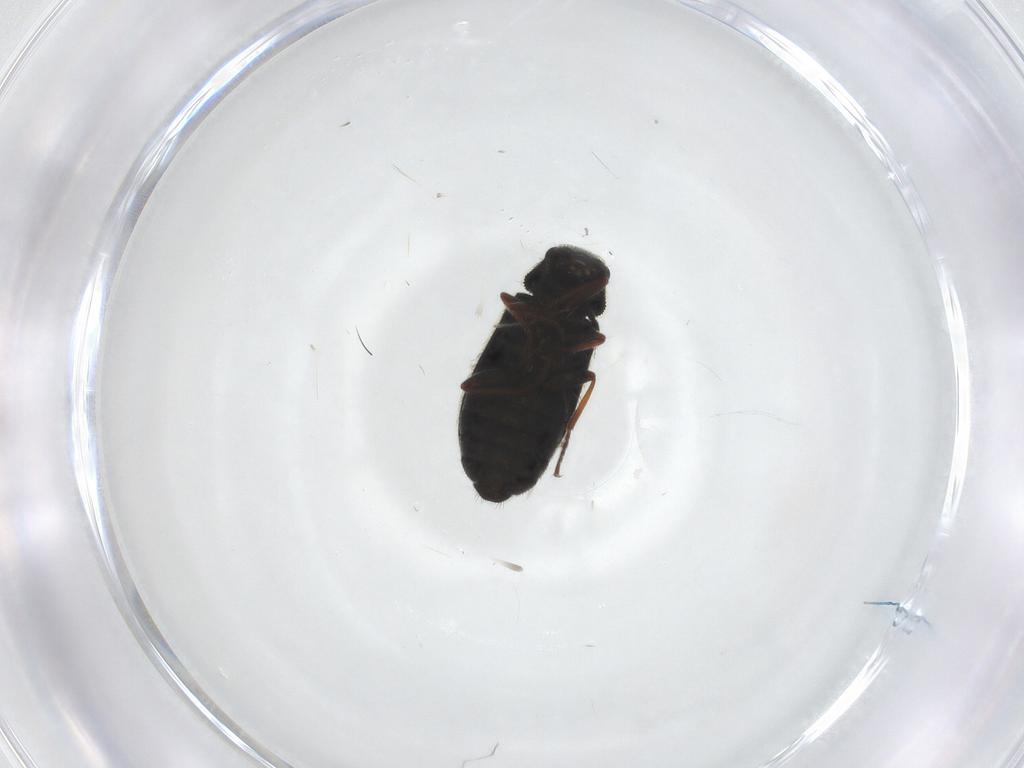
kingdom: Animalia
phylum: Arthropoda
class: Insecta
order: Coleoptera
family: Melyridae
